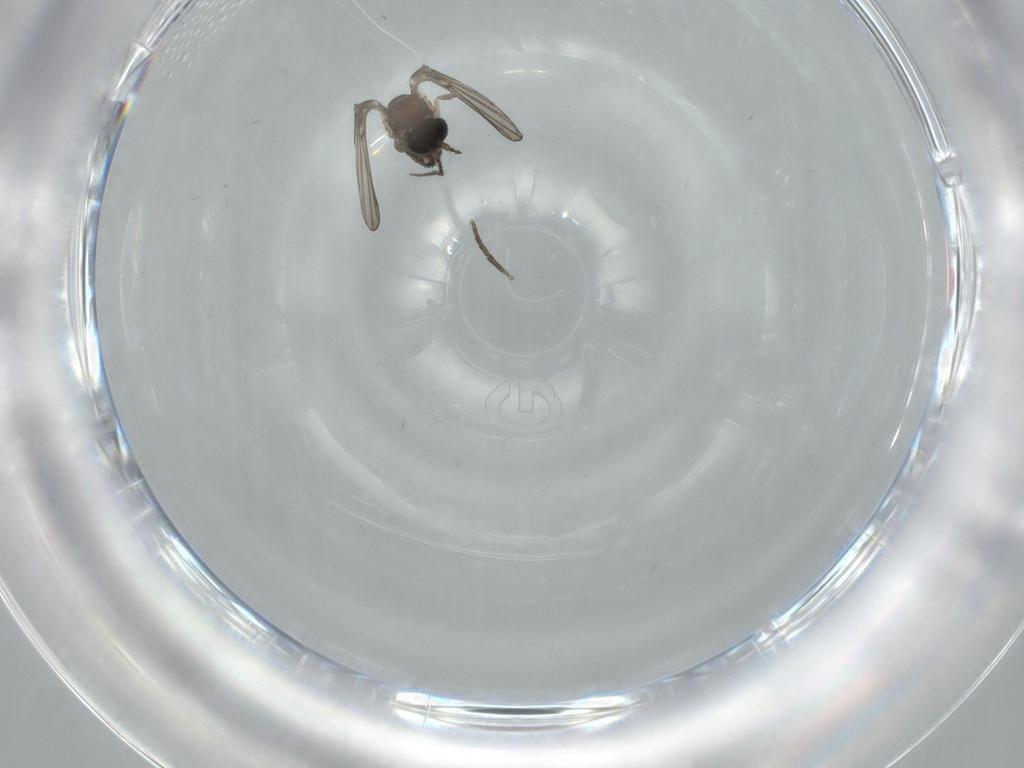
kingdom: Animalia
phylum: Arthropoda
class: Insecta
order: Diptera
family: Psychodidae
